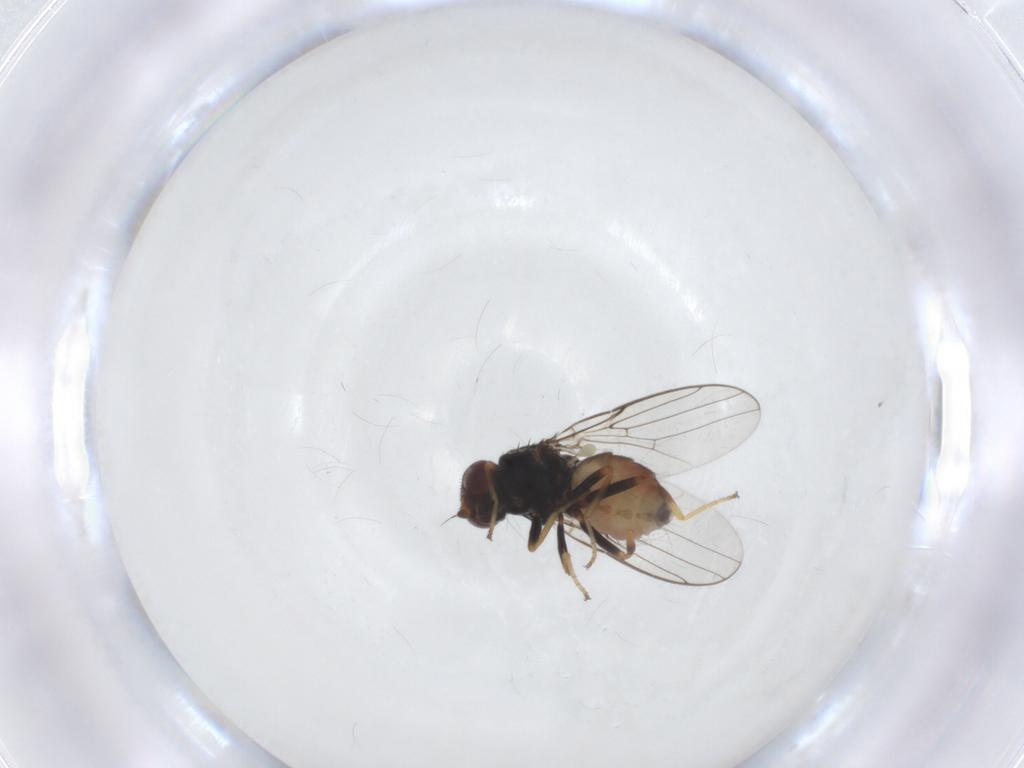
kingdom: Animalia
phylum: Arthropoda
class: Insecta
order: Diptera
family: Chloropidae
